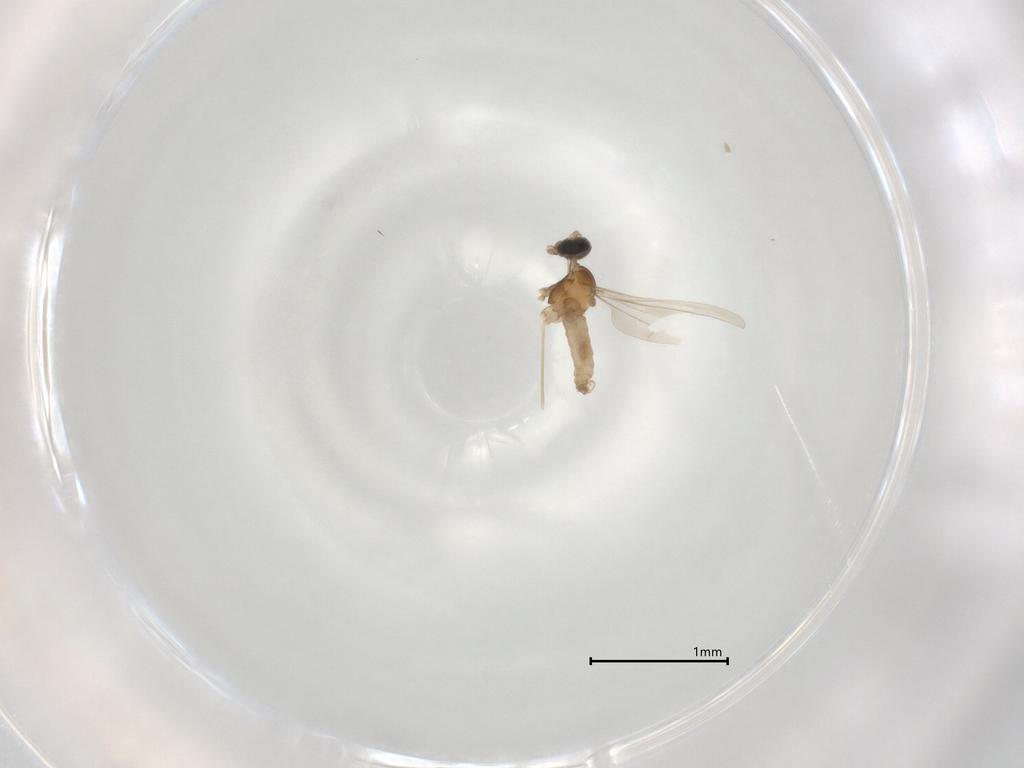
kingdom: Animalia
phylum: Arthropoda
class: Insecta
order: Diptera
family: Cecidomyiidae
